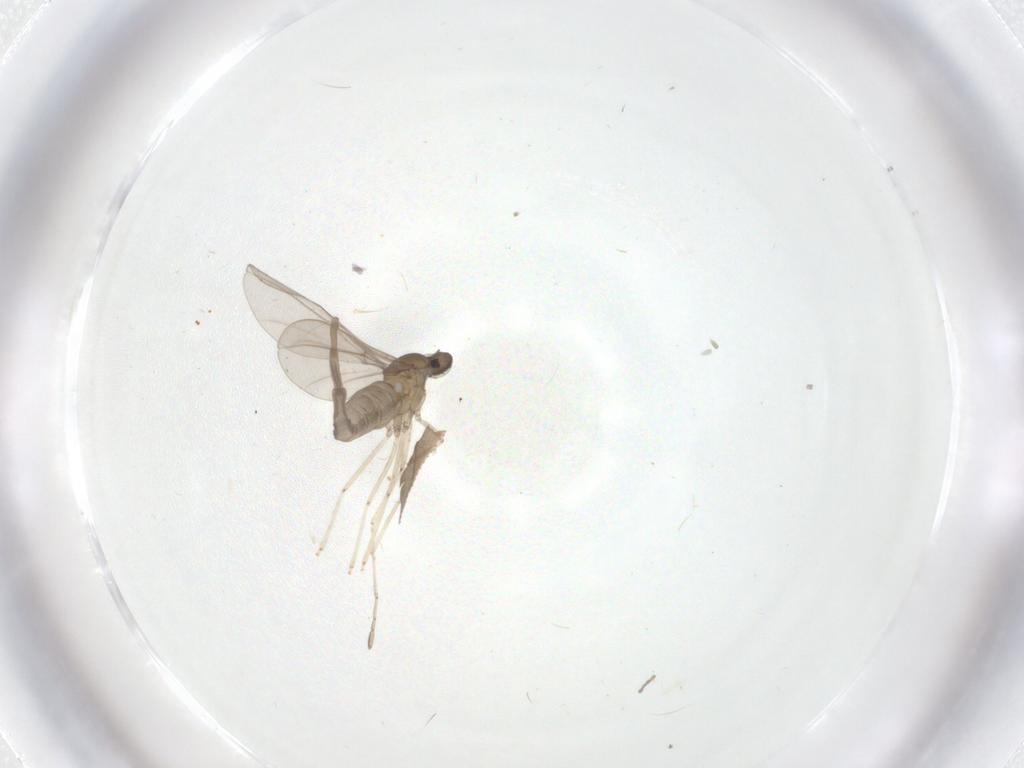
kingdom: Animalia
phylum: Arthropoda
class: Insecta
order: Diptera
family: Cecidomyiidae
